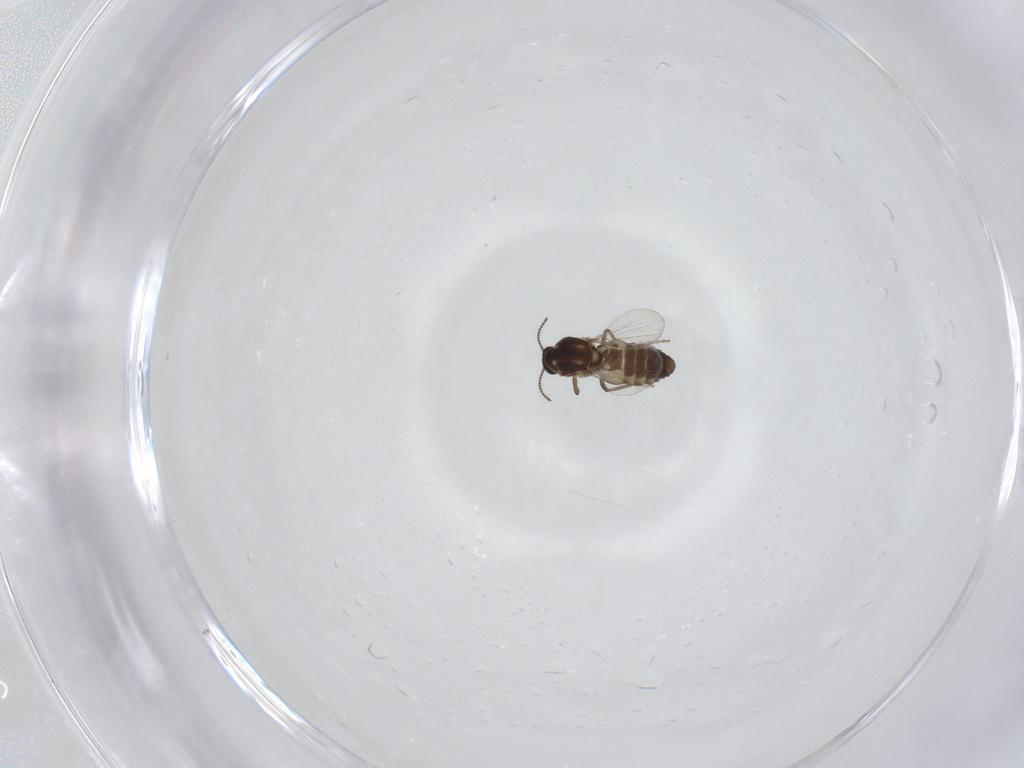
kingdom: Animalia
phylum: Arthropoda
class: Insecta
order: Diptera
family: Ceratopogonidae
